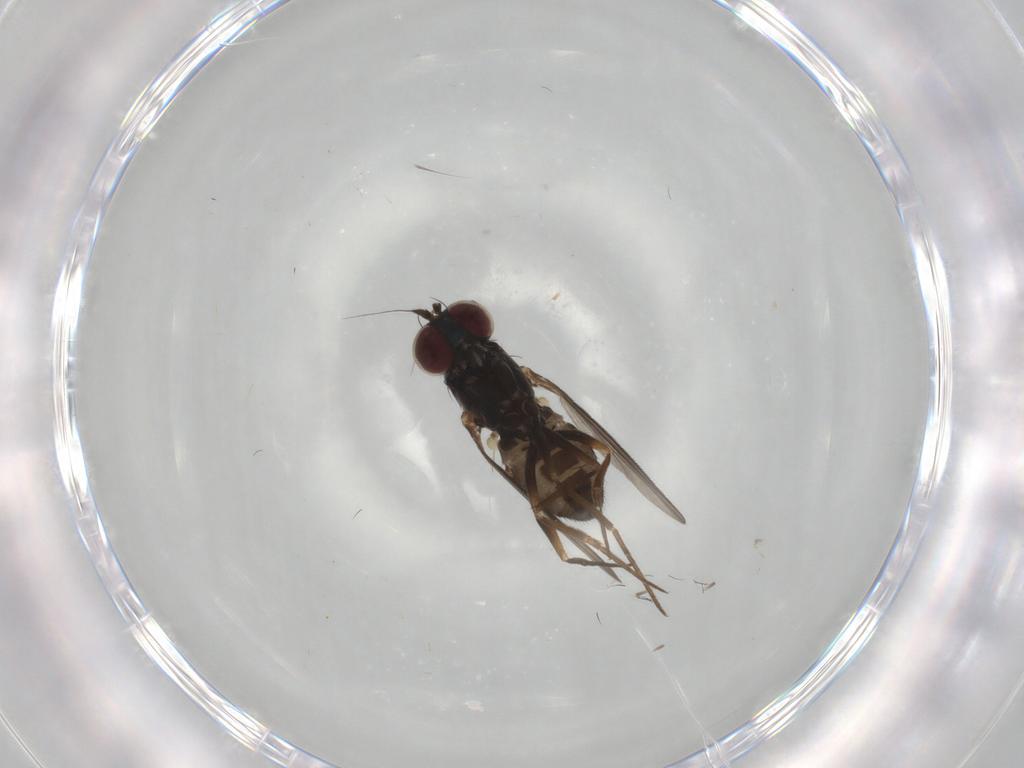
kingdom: Animalia
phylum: Arthropoda
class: Insecta
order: Diptera
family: Dolichopodidae
